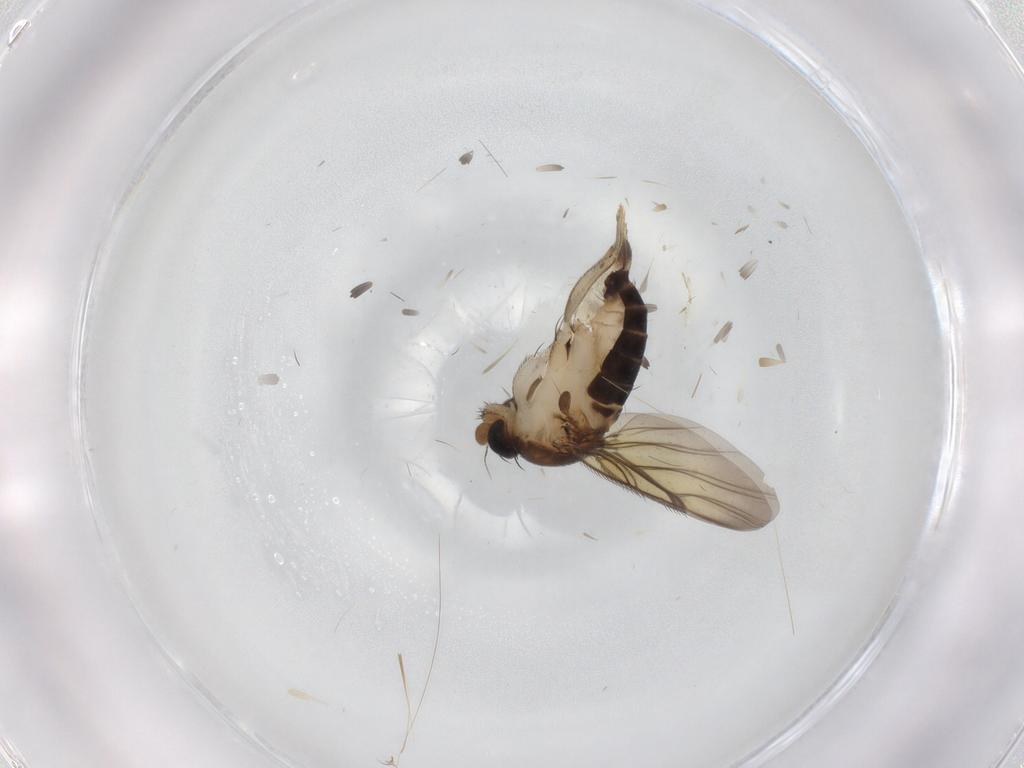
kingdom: Animalia
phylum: Arthropoda
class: Insecta
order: Diptera
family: Phoridae
